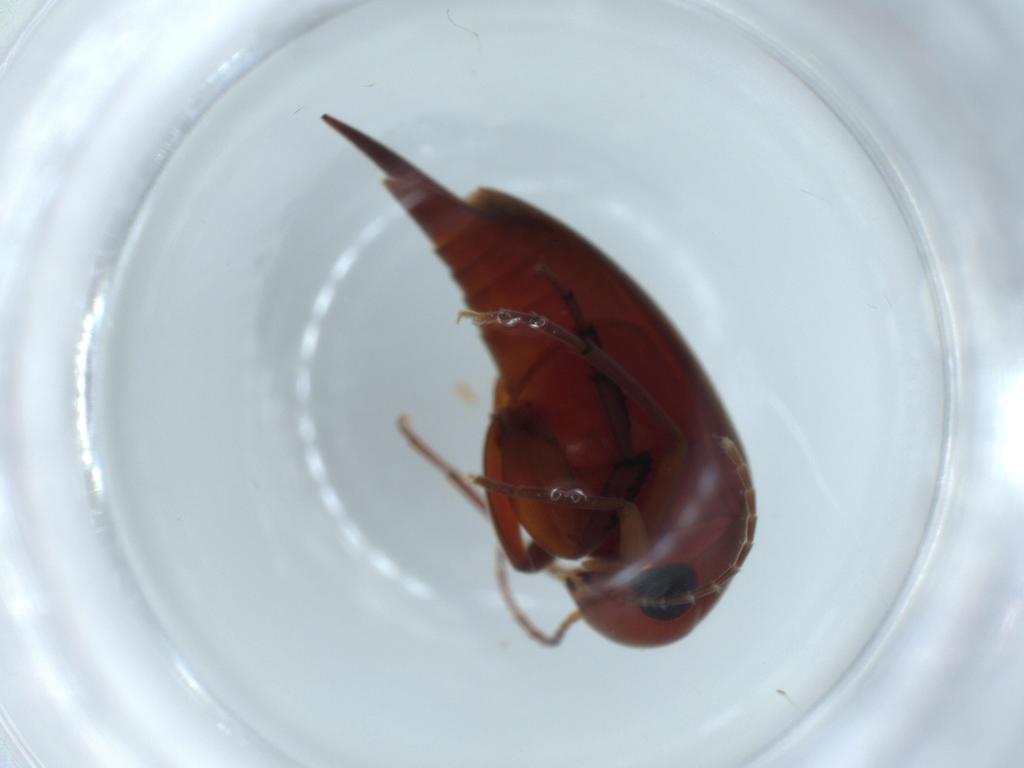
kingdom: Animalia
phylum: Arthropoda
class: Insecta
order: Coleoptera
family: Mordellidae
